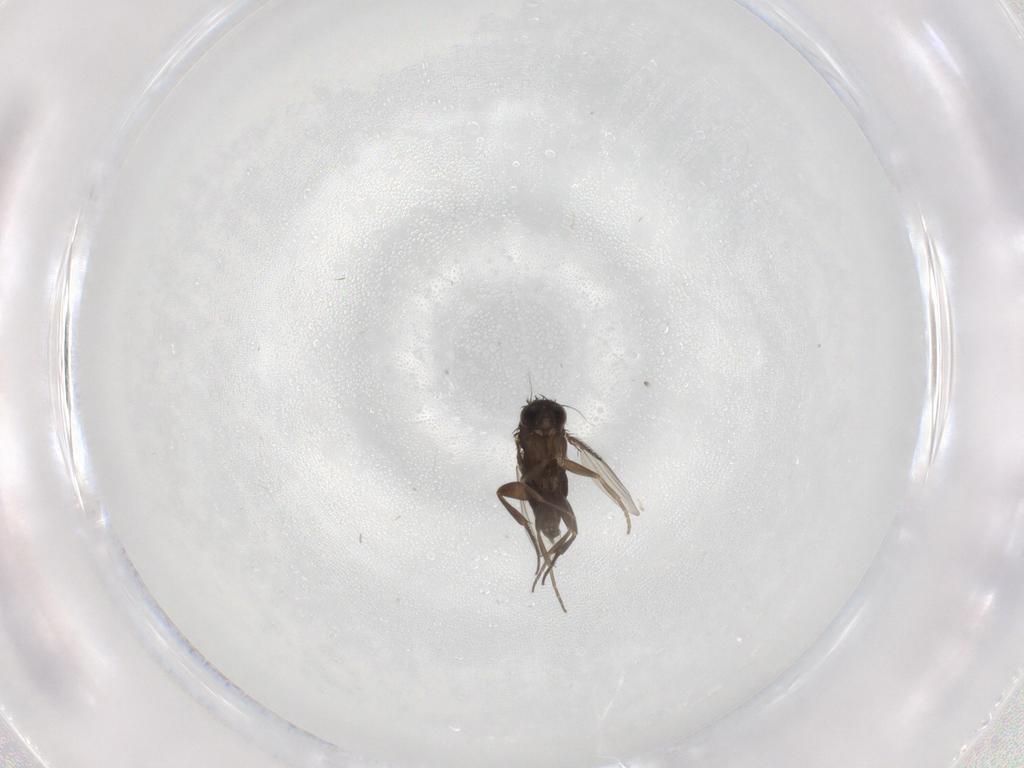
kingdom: Animalia
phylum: Arthropoda
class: Insecta
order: Diptera
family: Phoridae
